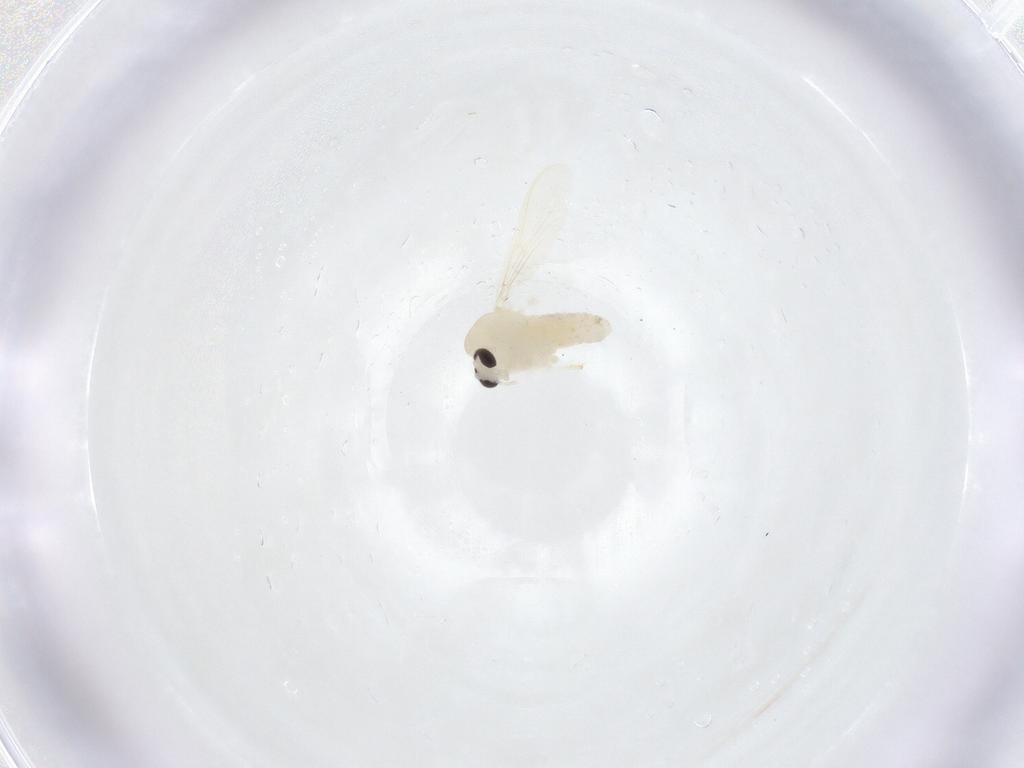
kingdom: Animalia
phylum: Arthropoda
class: Insecta
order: Diptera
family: Culicidae
